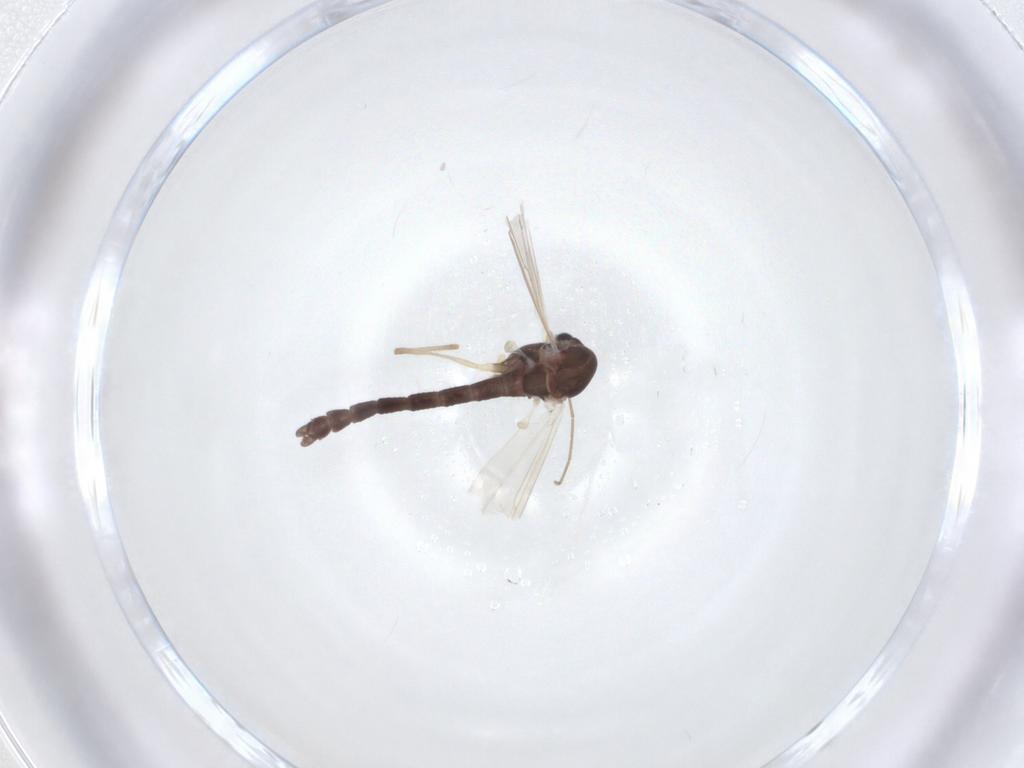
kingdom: Animalia
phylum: Arthropoda
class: Insecta
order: Diptera
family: Chironomidae
